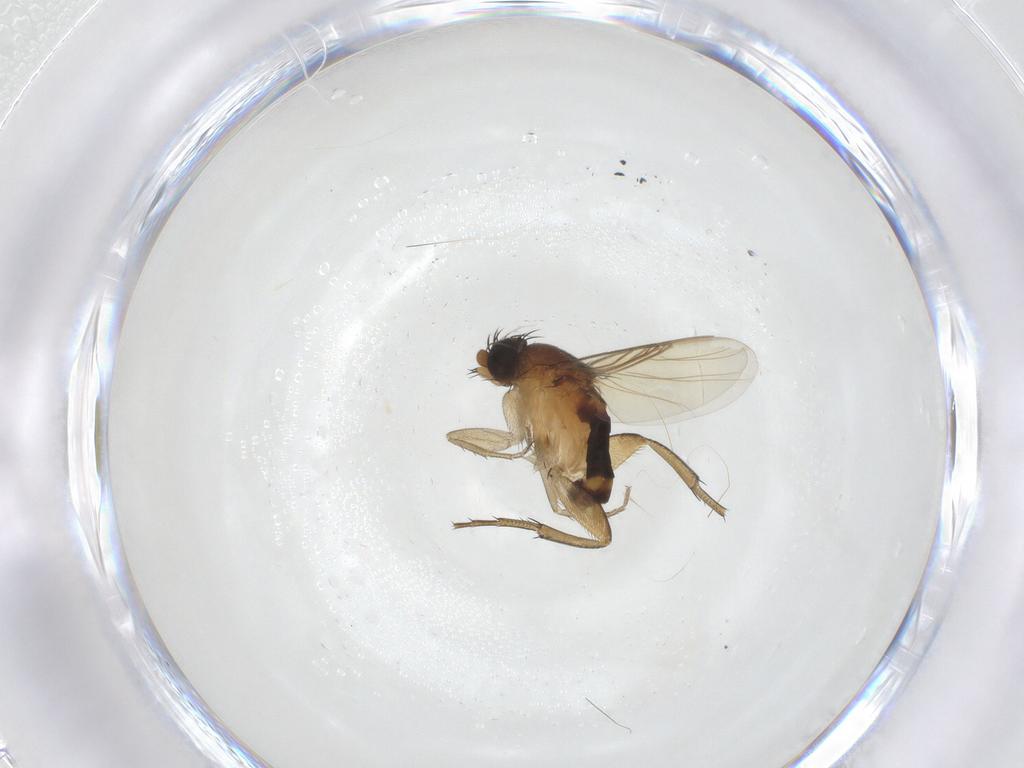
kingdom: Animalia
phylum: Arthropoda
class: Insecta
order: Diptera
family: Phoridae
